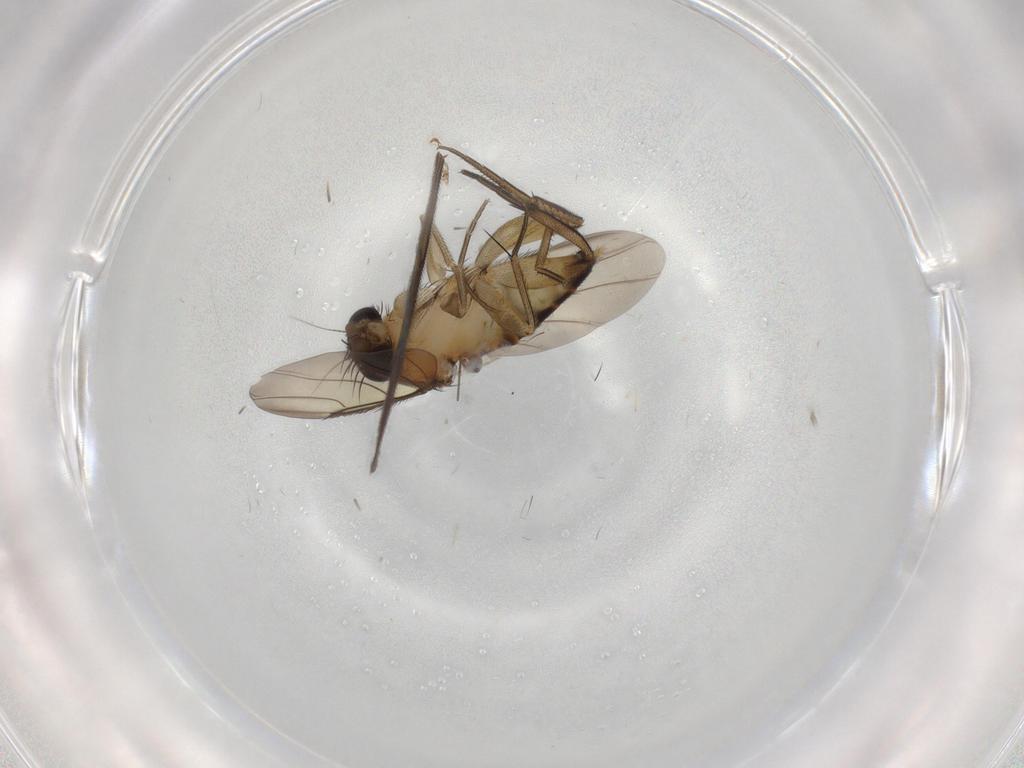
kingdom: Animalia
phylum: Arthropoda
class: Insecta
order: Diptera
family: Phoridae
